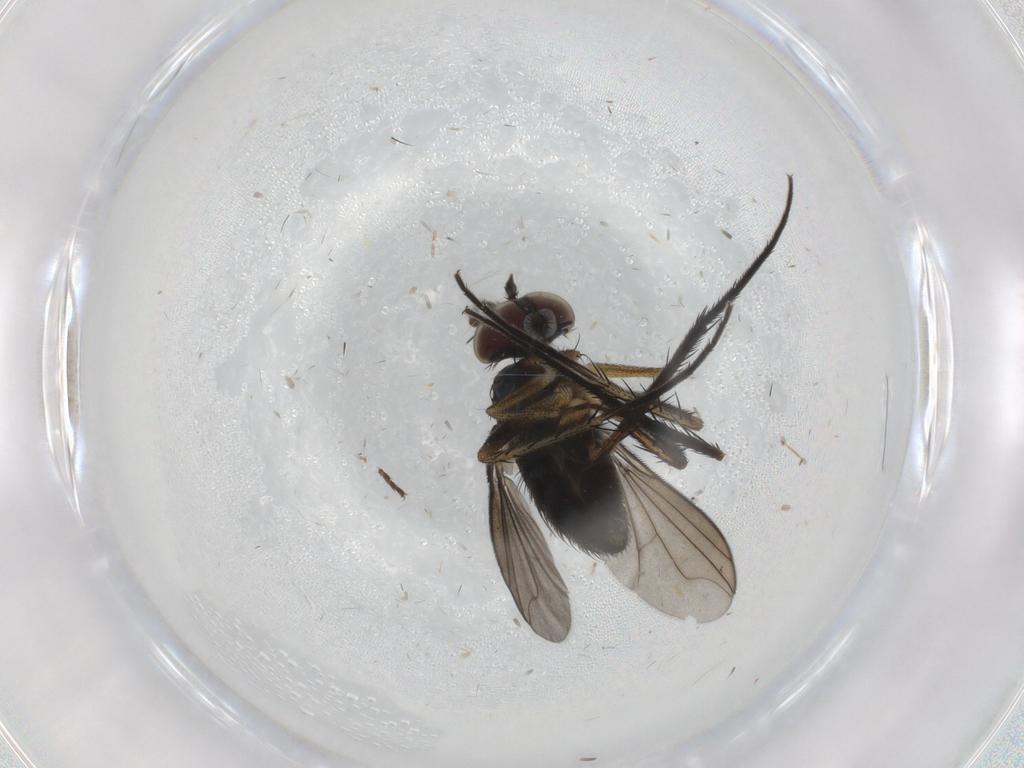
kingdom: Animalia
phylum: Arthropoda
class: Insecta
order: Diptera
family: Dolichopodidae
